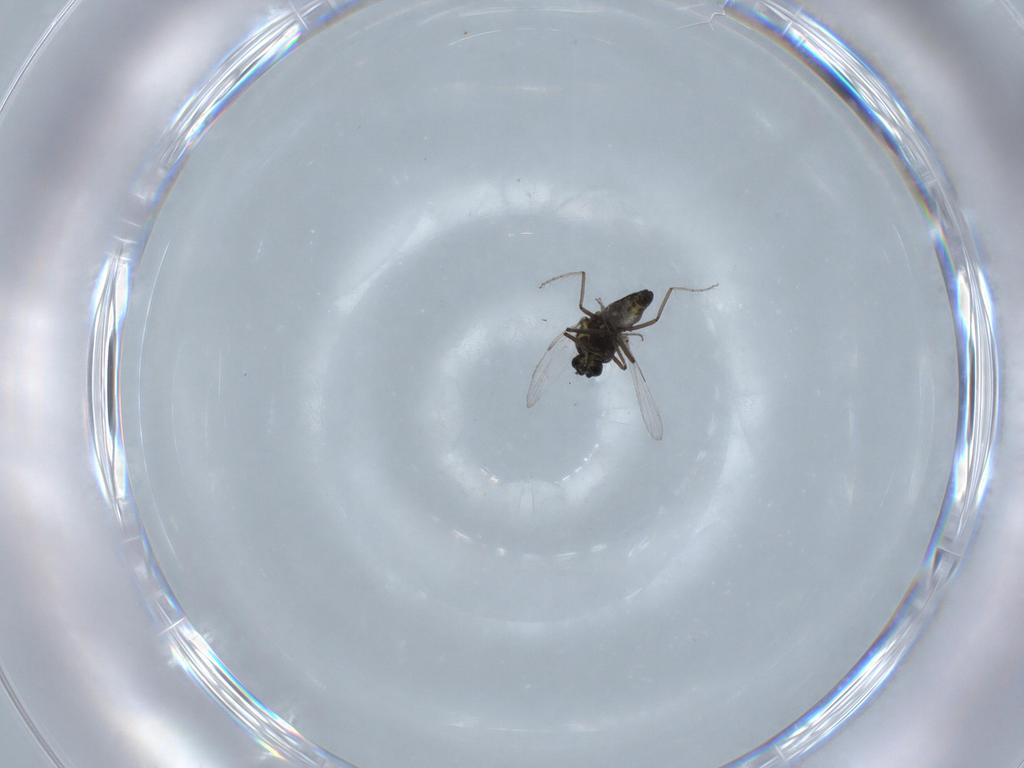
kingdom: Animalia
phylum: Arthropoda
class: Insecta
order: Diptera
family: Ceratopogonidae
